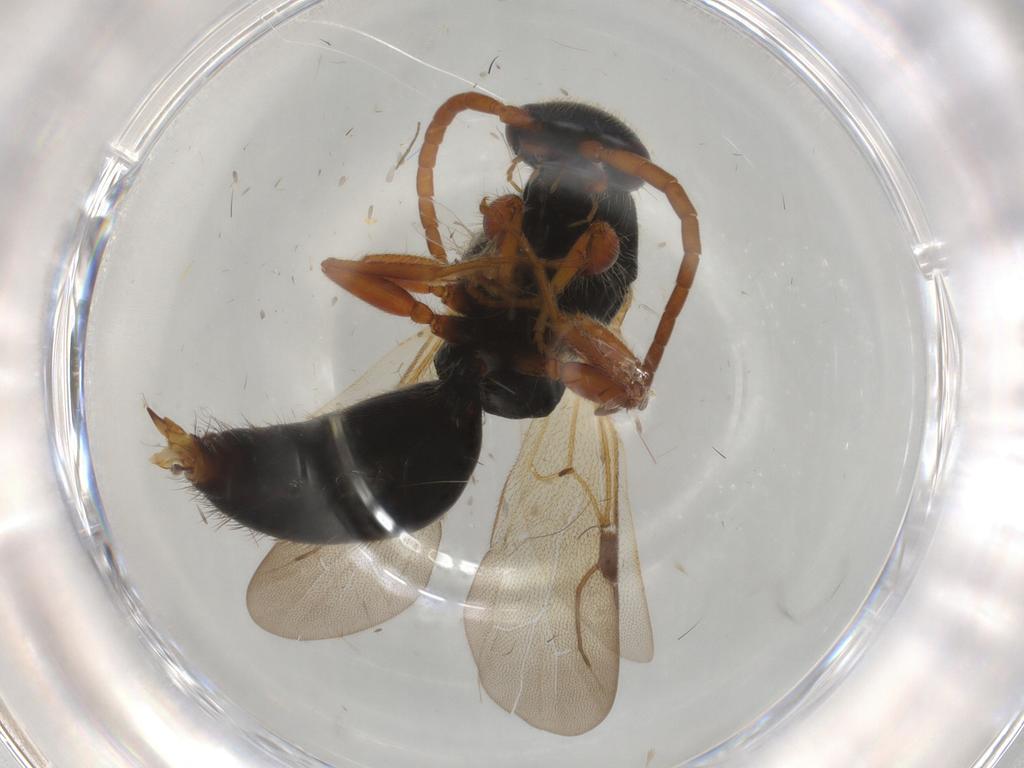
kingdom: Animalia
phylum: Arthropoda
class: Insecta
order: Hymenoptera
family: Bethylidae
